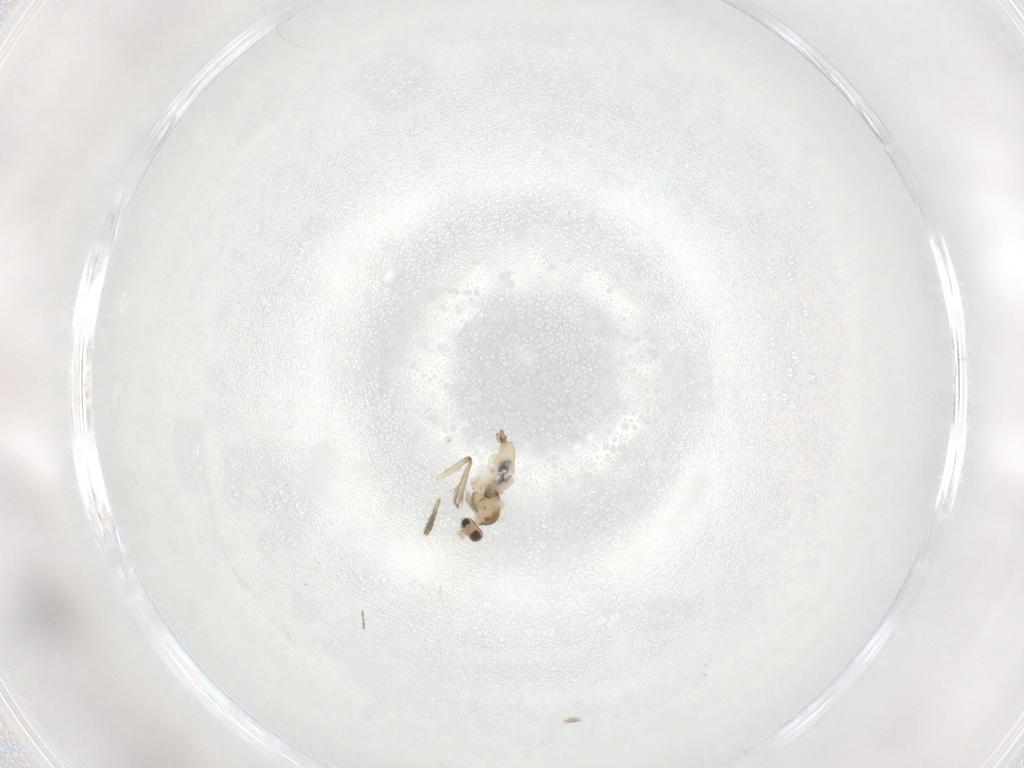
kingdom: Animalia
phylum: Arthropoda
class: Insecta
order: Diptera
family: Cecidomyiidae
